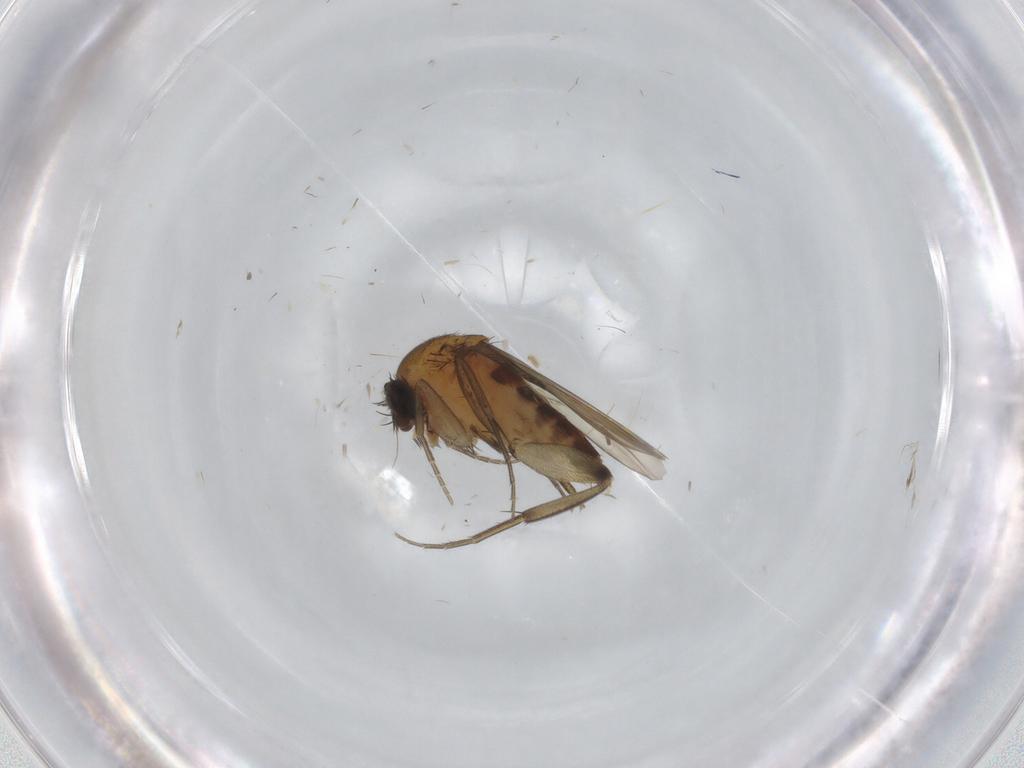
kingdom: Animalia
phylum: Arthropoda
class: Insecta
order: Diptera
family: Phoridae
